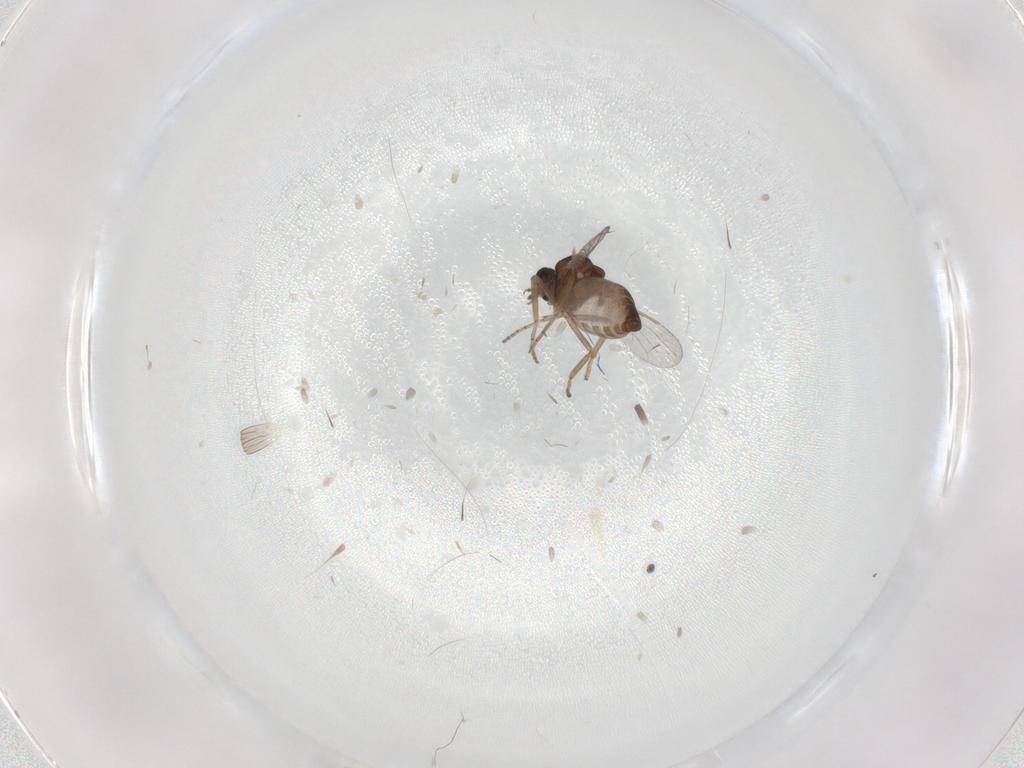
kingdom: Animalia
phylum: Arthropoda
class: Insecta
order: Diptera
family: Ceratopogonidae
